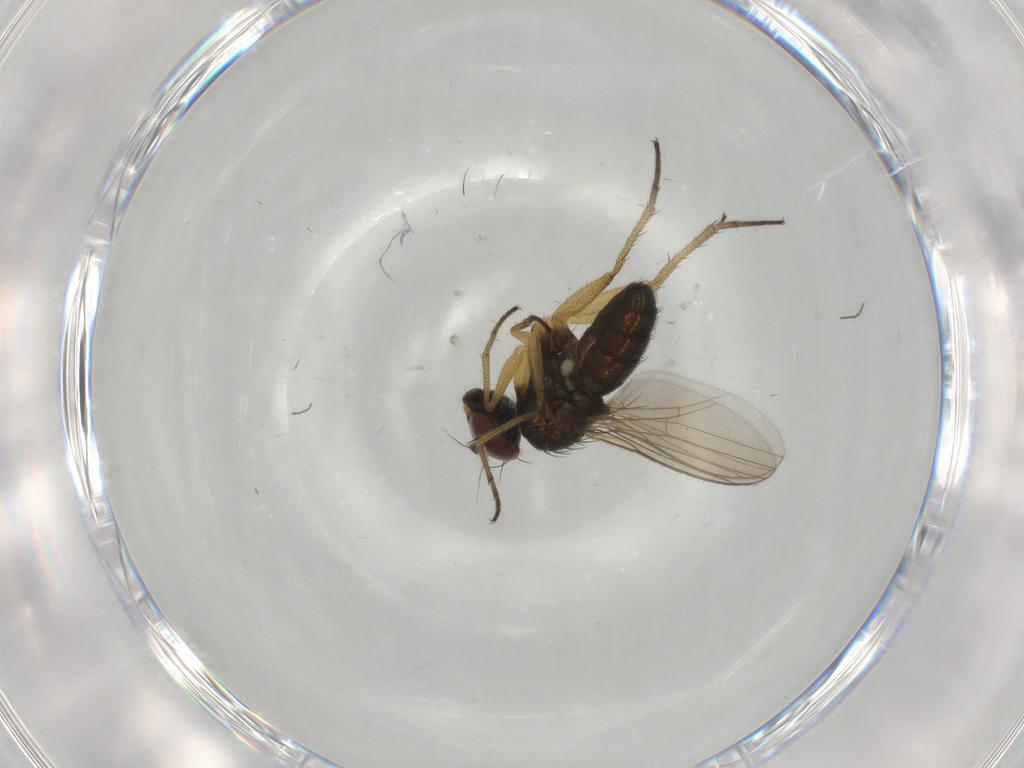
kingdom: Animalia
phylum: Arthropoda
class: Insecta
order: Diptera
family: Dolichopodidae
